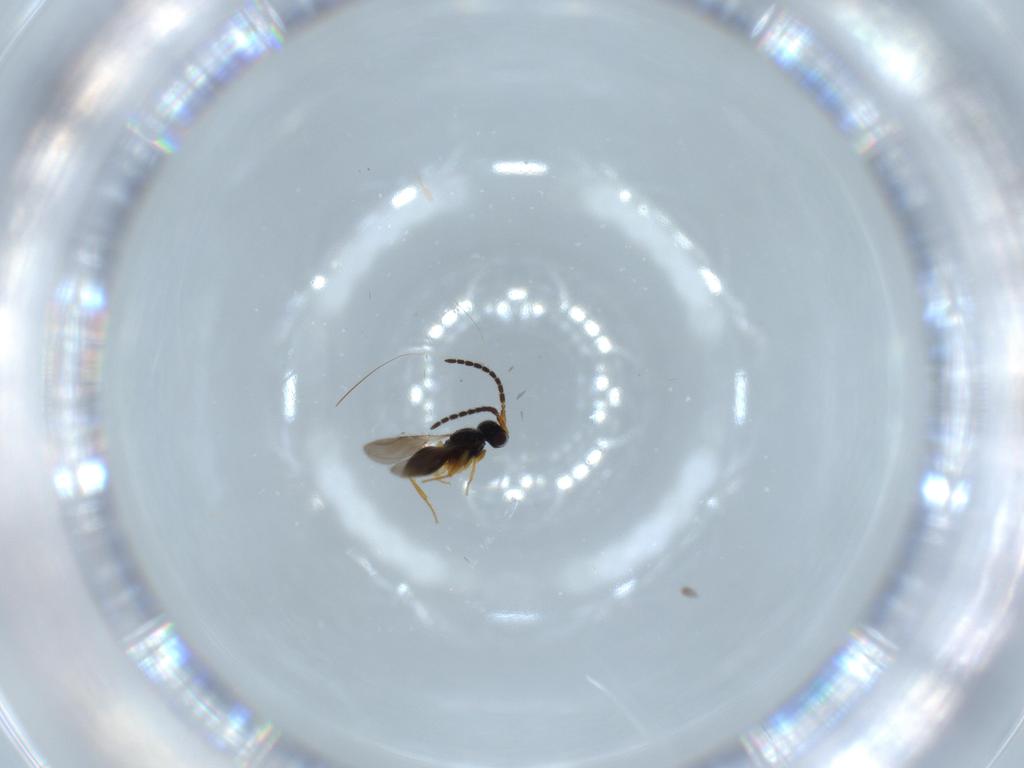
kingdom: Animalia
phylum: Arthropoda
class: Insecta
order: Hymenoptera
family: Ceraphronidae
